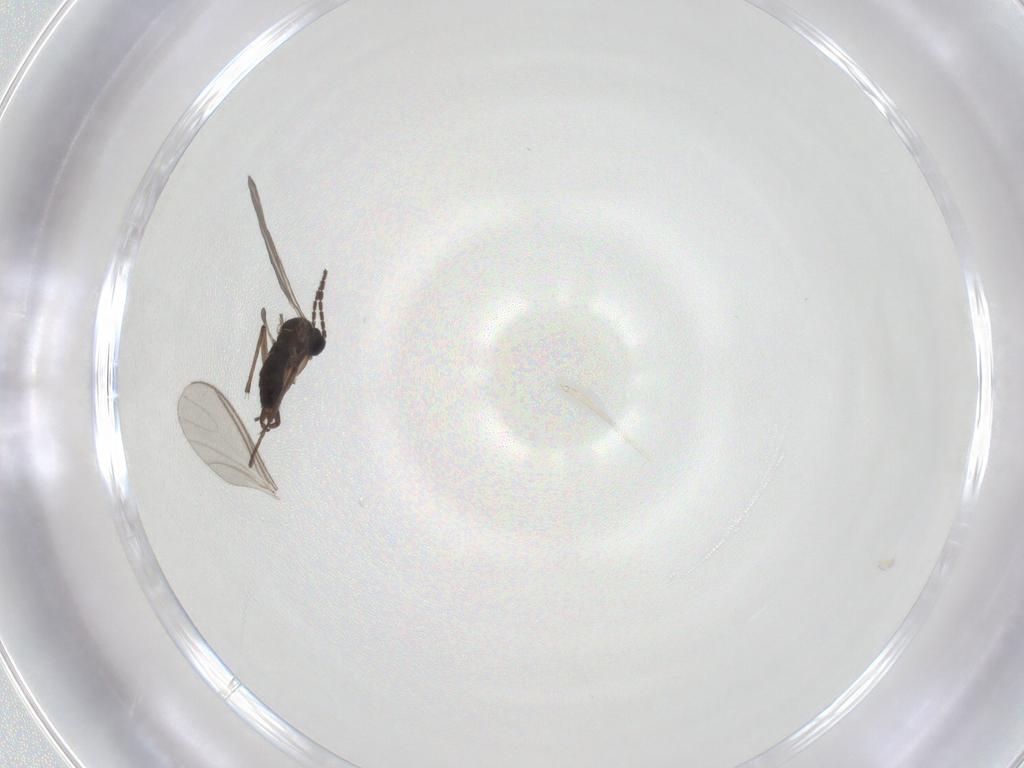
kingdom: Animalia
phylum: Arthropoda
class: Insecta
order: Diptera
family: Sciaridae
